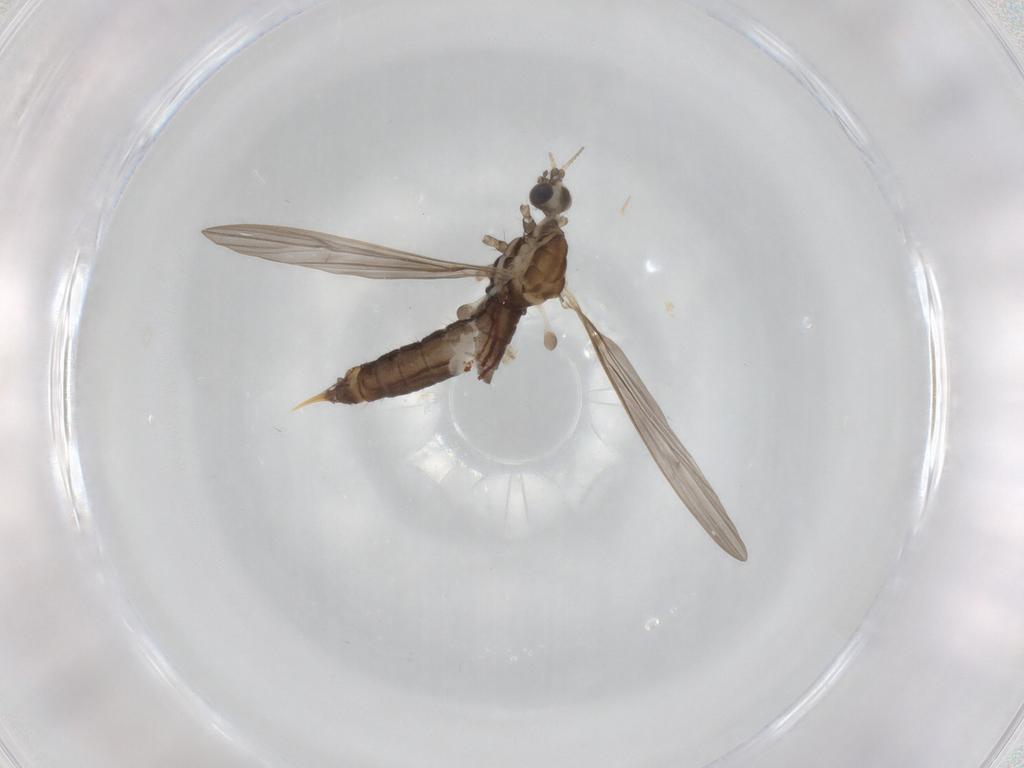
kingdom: Animalia
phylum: Arthropoda
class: Insecta
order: Diptera
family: Limoniidae
